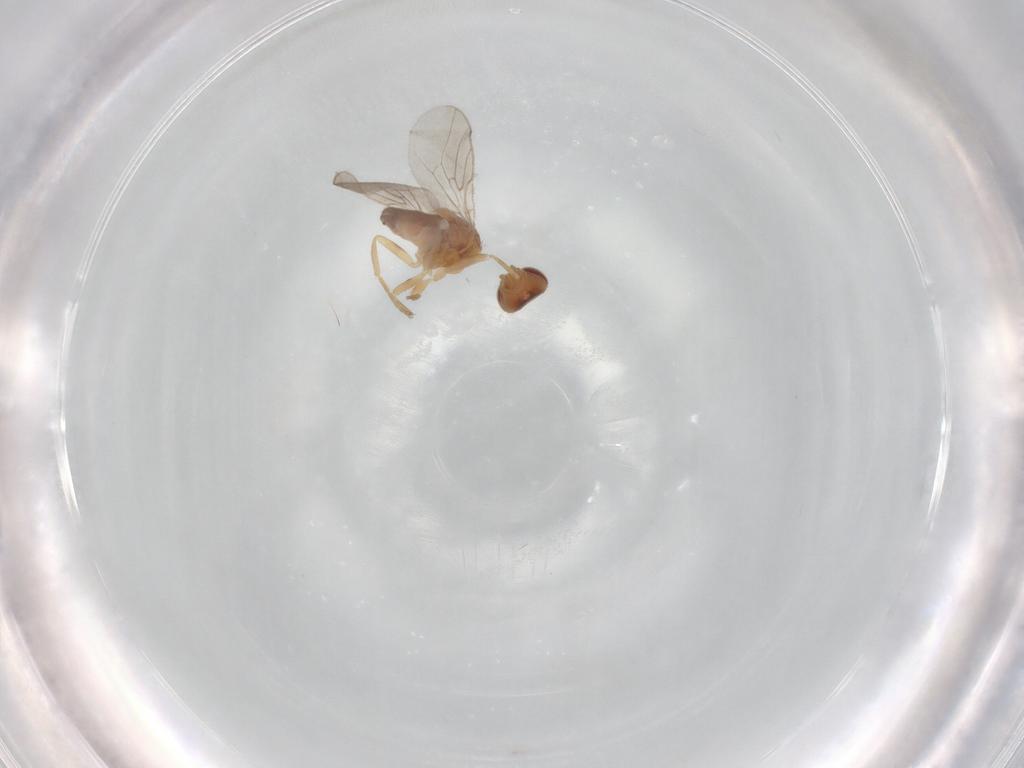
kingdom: Animalia
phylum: Arthropoda
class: Insecta
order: Diptera
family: Chloropidae
